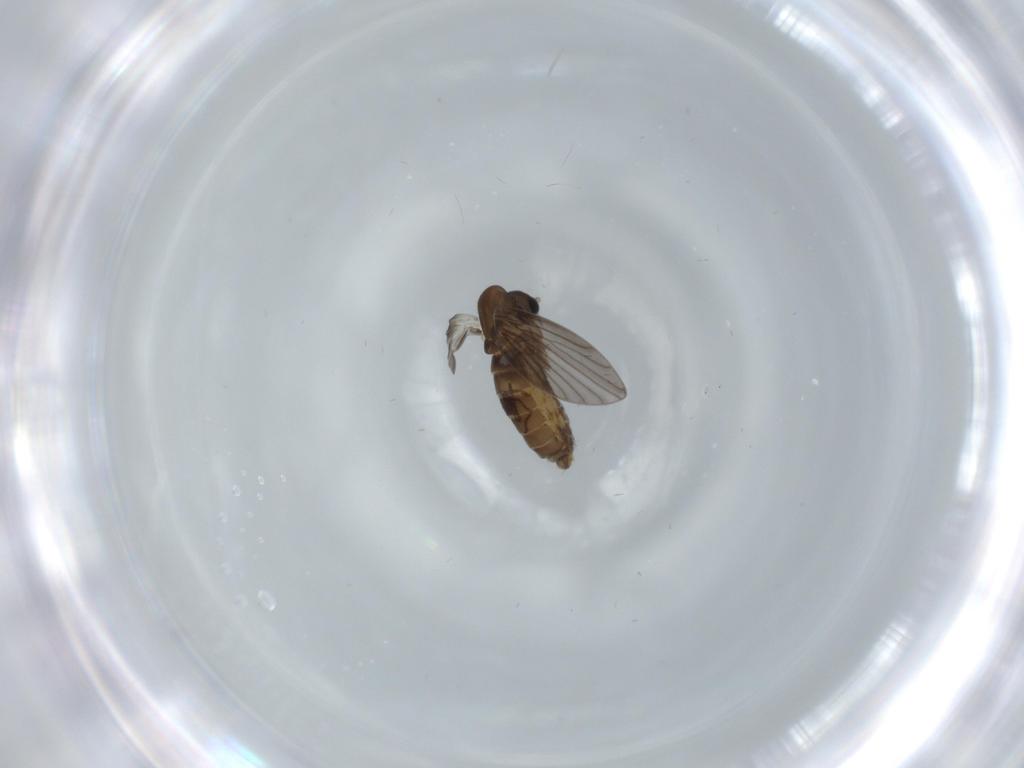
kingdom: Animalia
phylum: Arthropoda
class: Insecta
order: Diptera
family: Psychodidae
